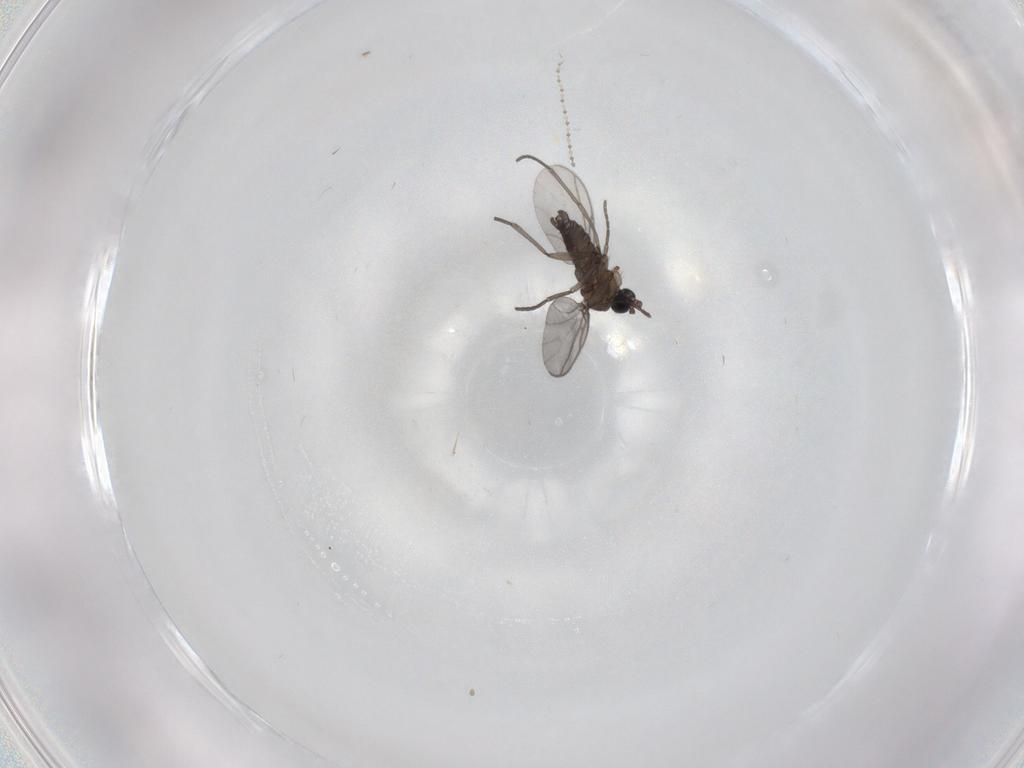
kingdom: Animalia
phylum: Arthropoda
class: Insecta
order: Diptera
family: Cecidomyiidae
